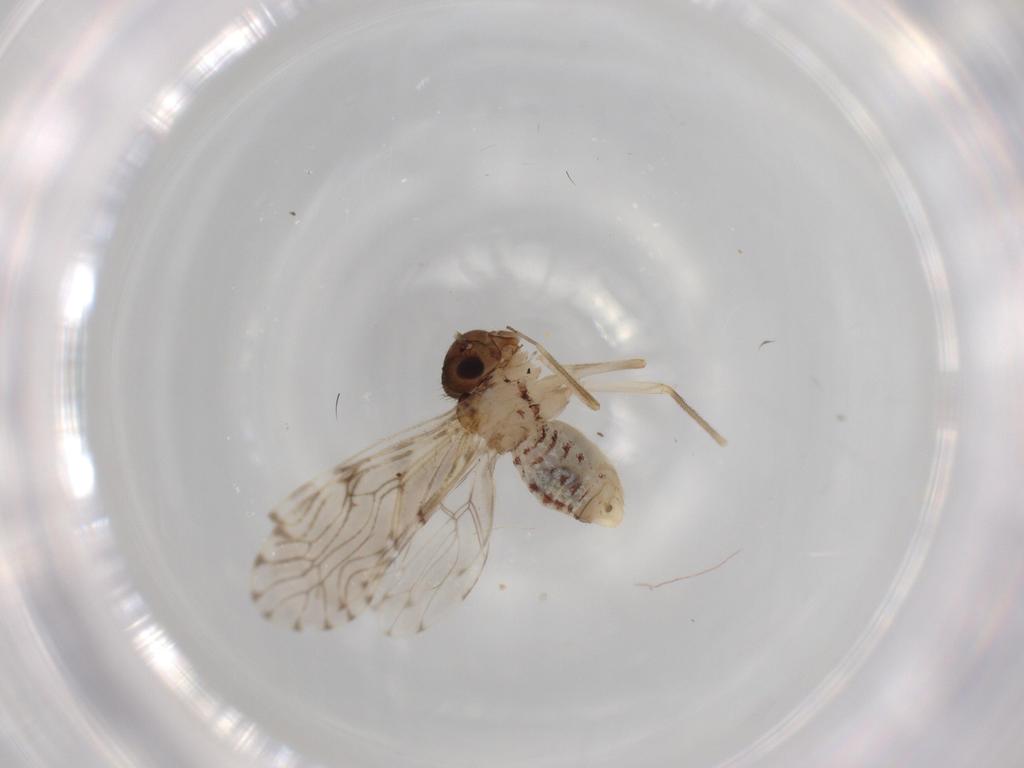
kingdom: Animalia
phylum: Arthropoda
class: Insecta
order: Psocodea
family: Epipsocidae
